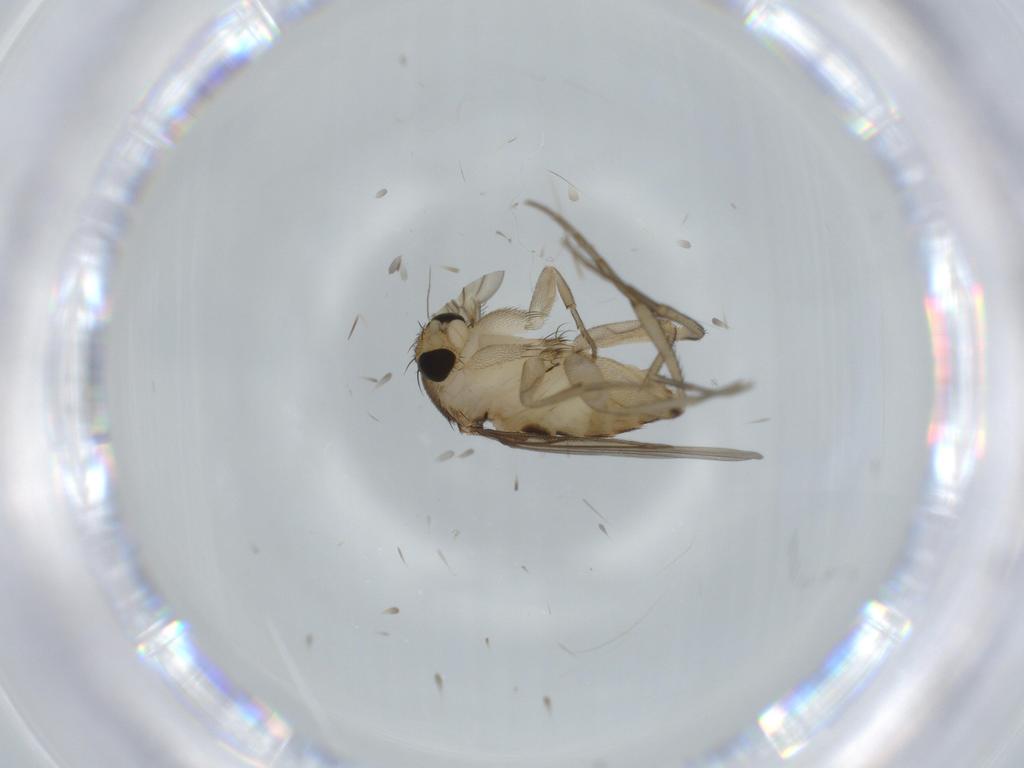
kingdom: Animalia
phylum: Arthropoda
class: Insecta
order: Diptera
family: Phoridae
